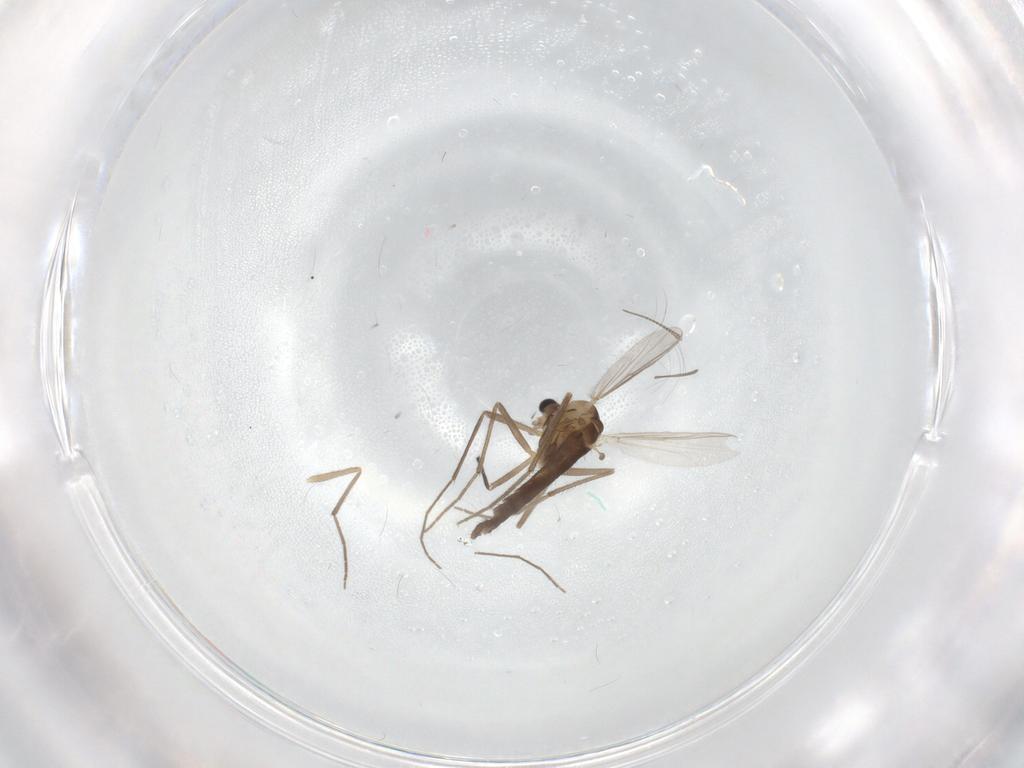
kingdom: Animalia
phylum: Arthropoda
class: Insecta
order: Diptera
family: Chironomidae
